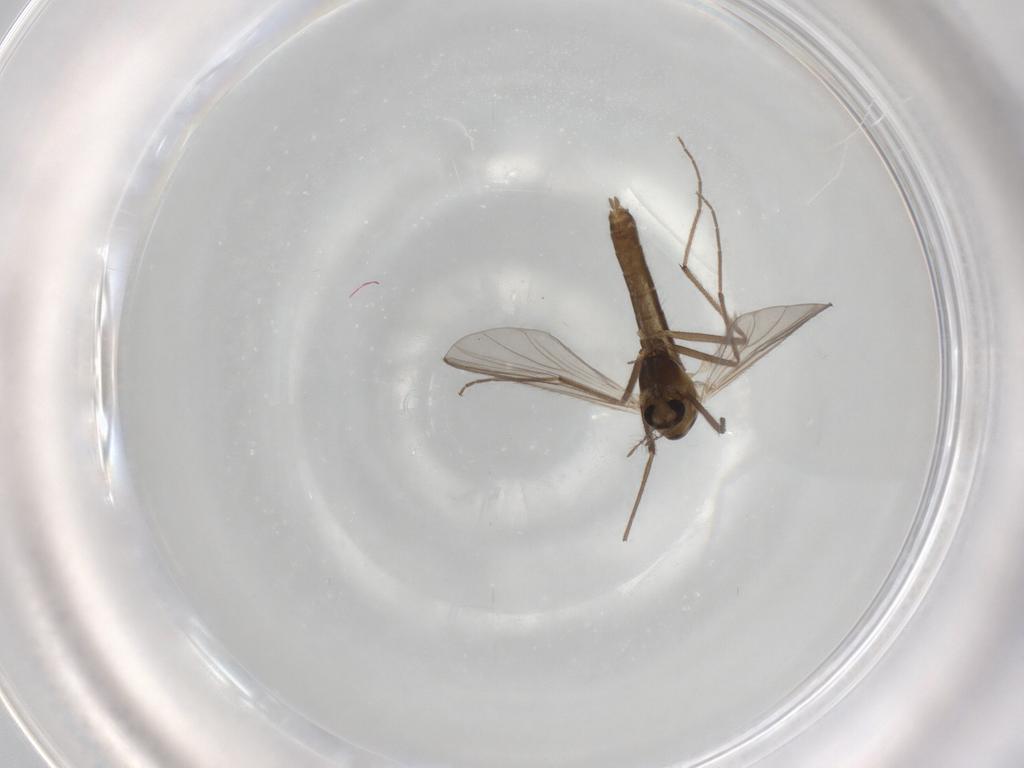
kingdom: Animalia
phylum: Arthropoda
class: Insecta
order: Diptera
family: Chironomidae
